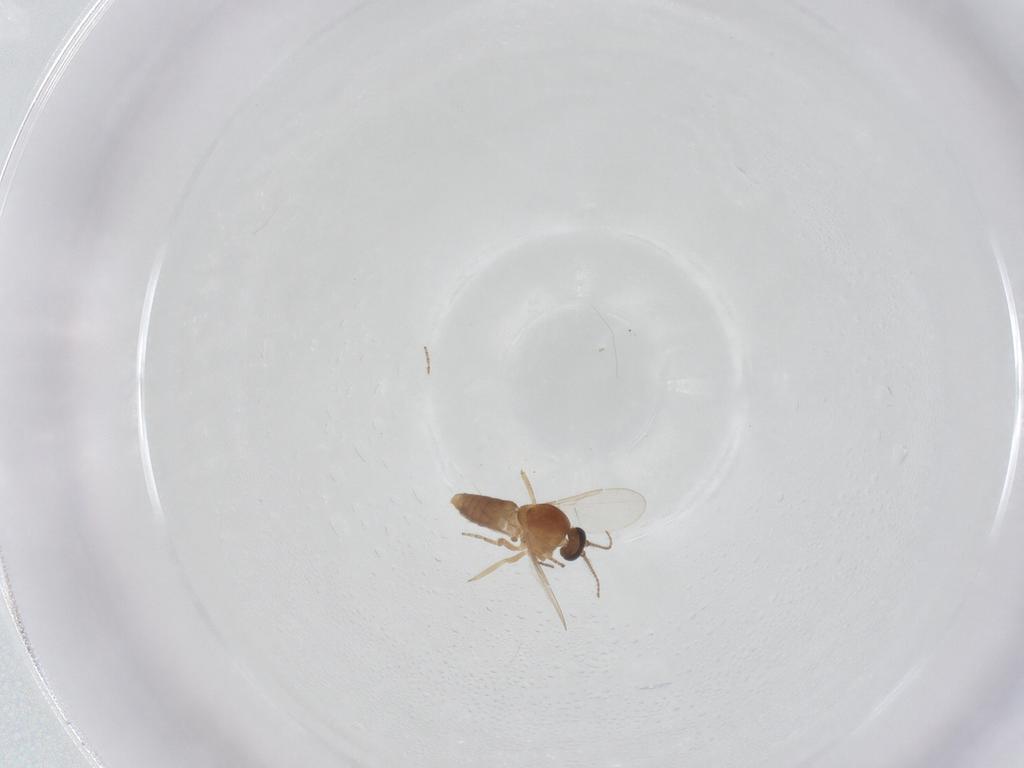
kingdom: Animalia
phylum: Arthropoda
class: Insecta
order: Diptera
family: Ceratopogonidae
